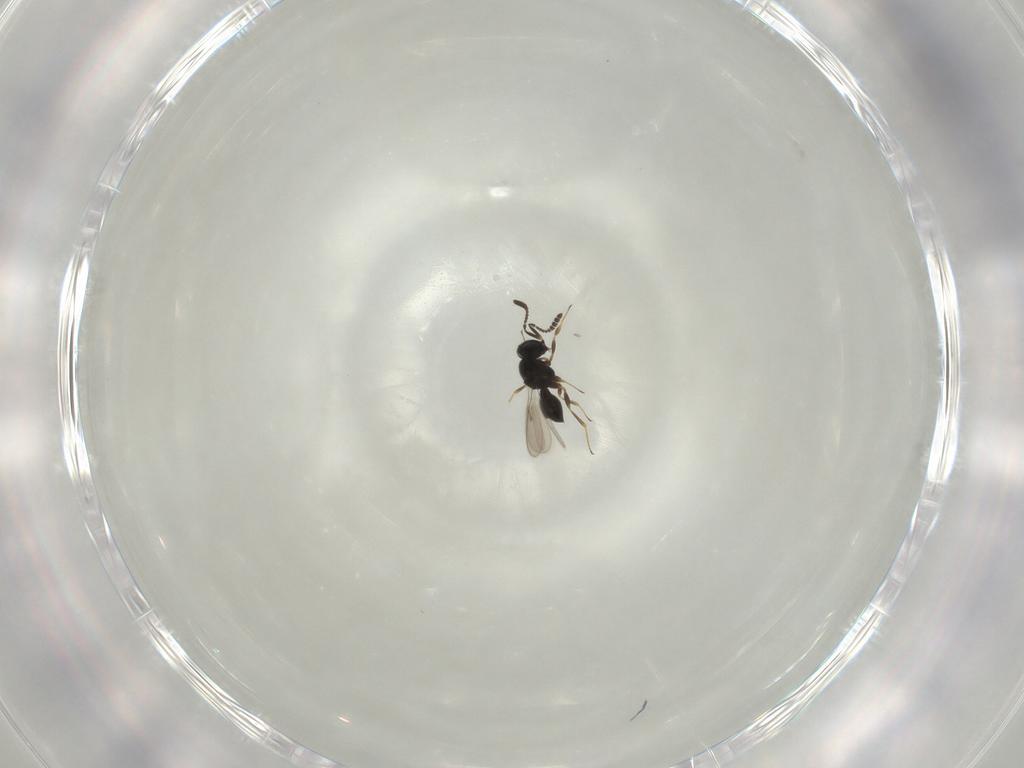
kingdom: Animalia
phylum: Arthropoda
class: Insecta
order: Hymenoptera
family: Scelionidae
